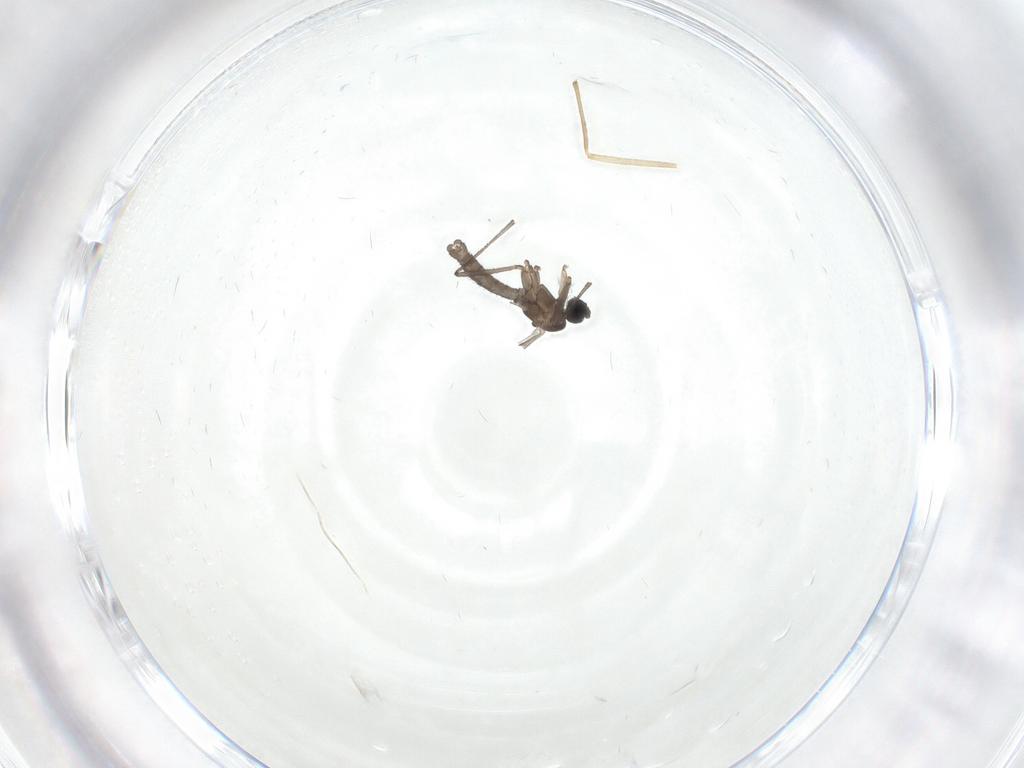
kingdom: Animalia
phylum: Arthropoda
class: Insecta
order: Diptera
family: Chironomidae
